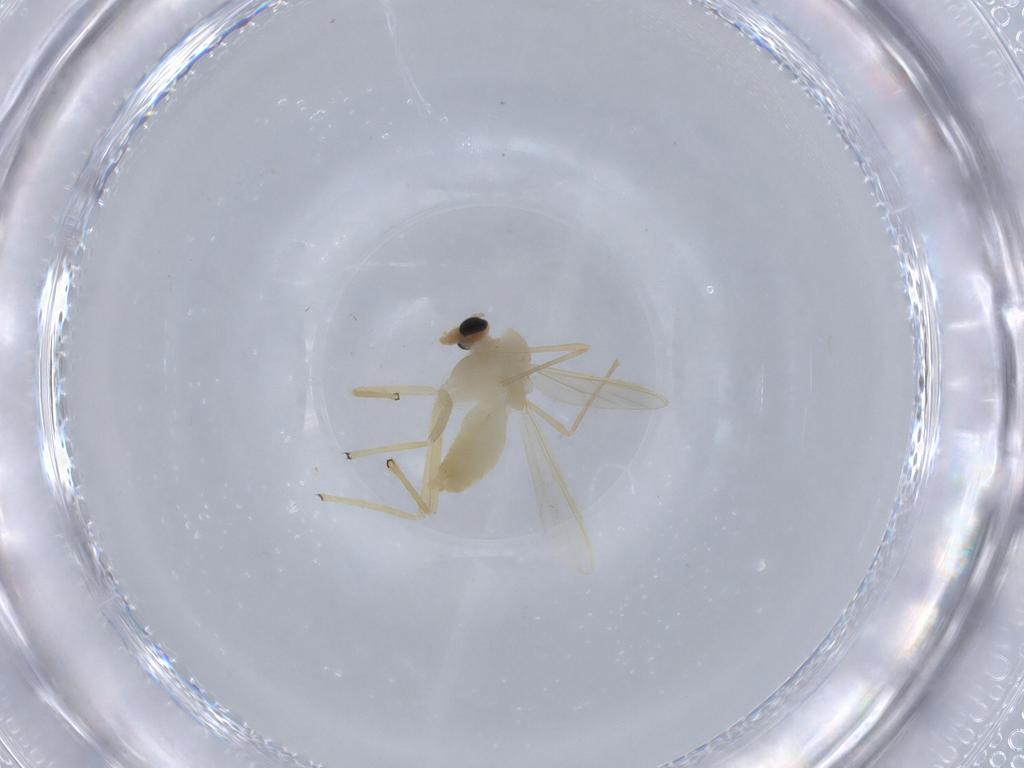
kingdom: Animalia
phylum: Arthropoda
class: Insecta
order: Diptera
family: Chironomidae
